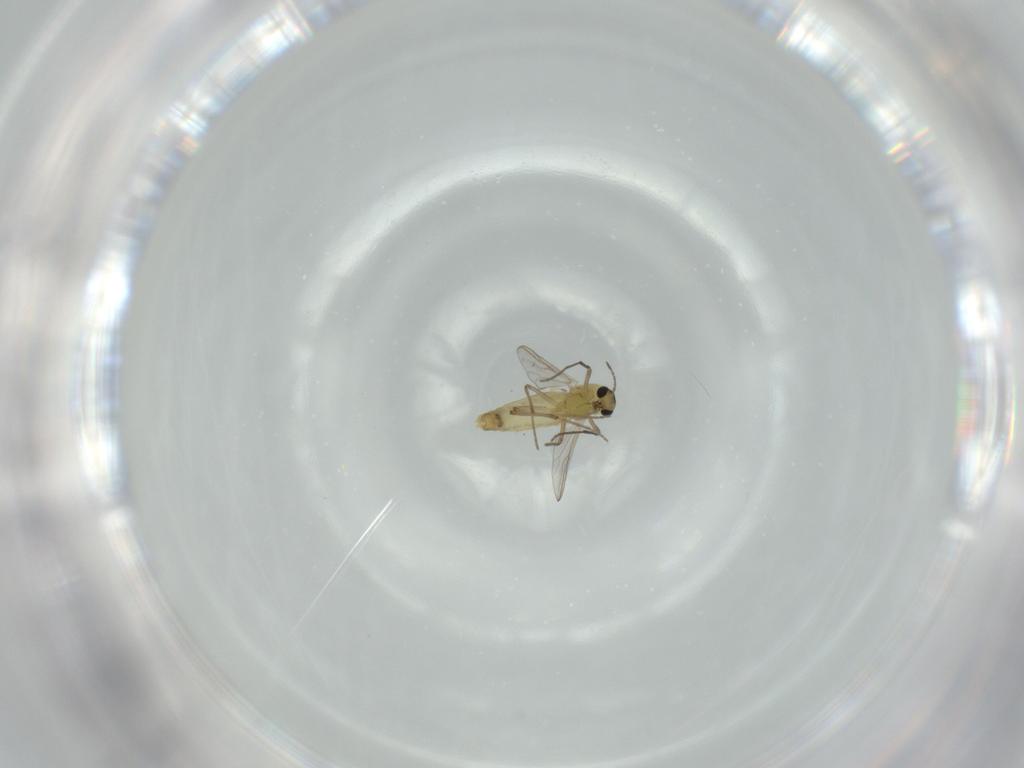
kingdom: Animalia
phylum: Arthropoda
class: Insecta
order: Diptera
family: Chironomidae
